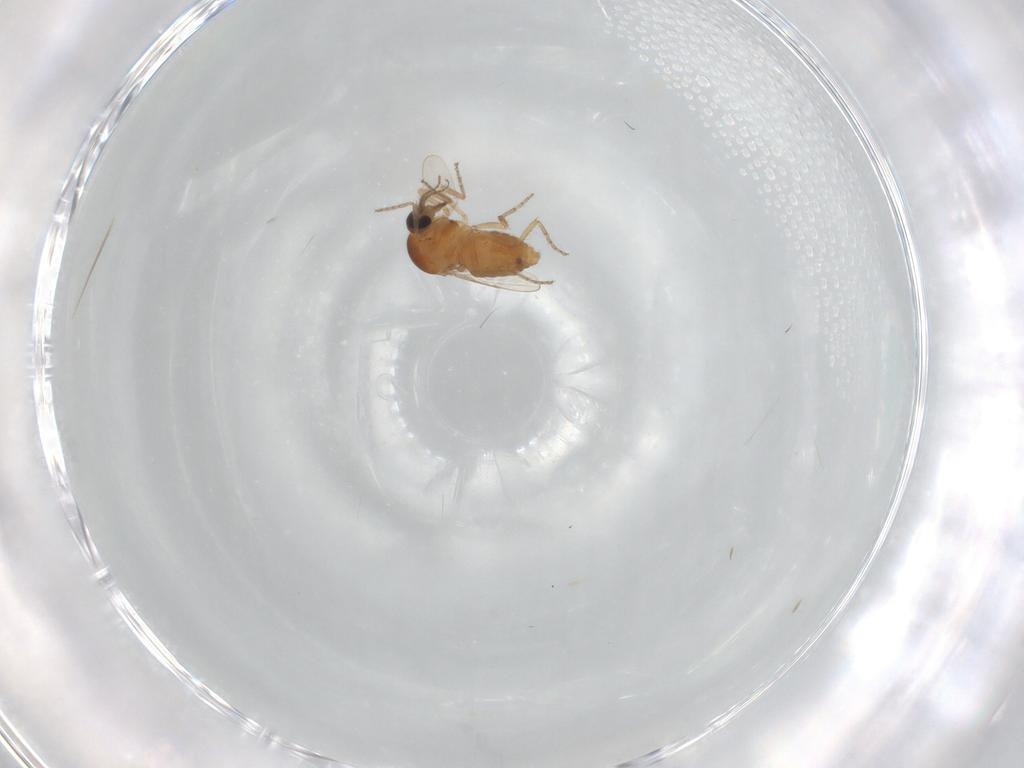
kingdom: Animalia
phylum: Arthropoda
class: Insecta
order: Diptera
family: Ceratopogonidae
